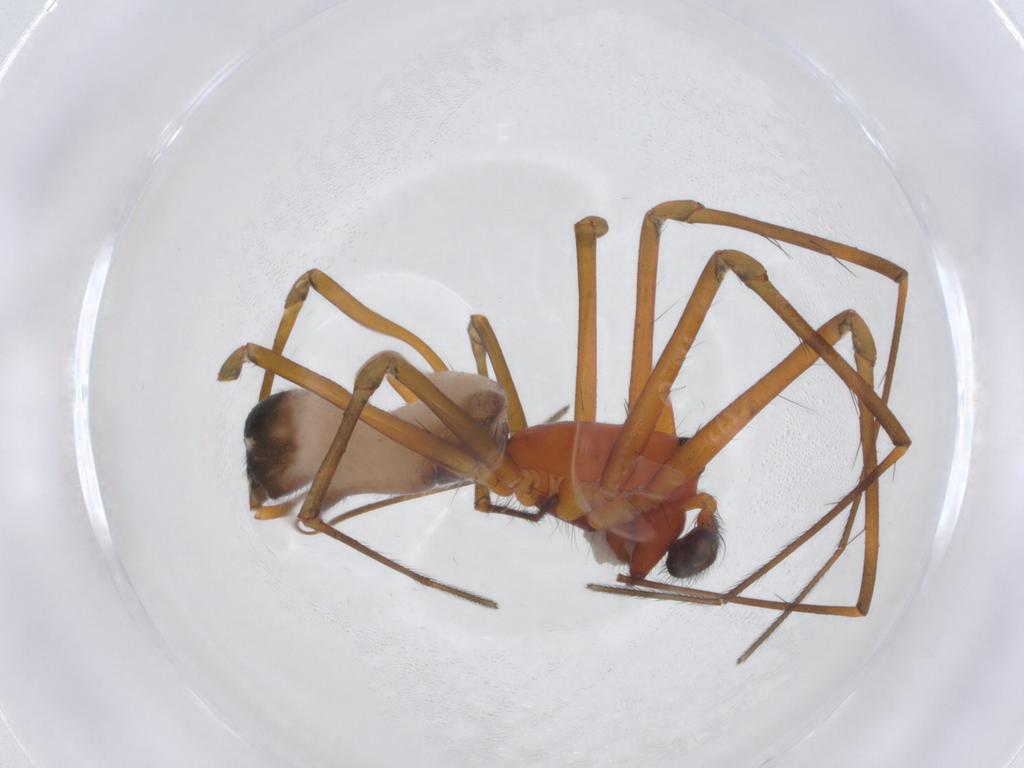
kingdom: Animalia
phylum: Arthropoda
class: Arachnida
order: Araneae
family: Linyphiidae
